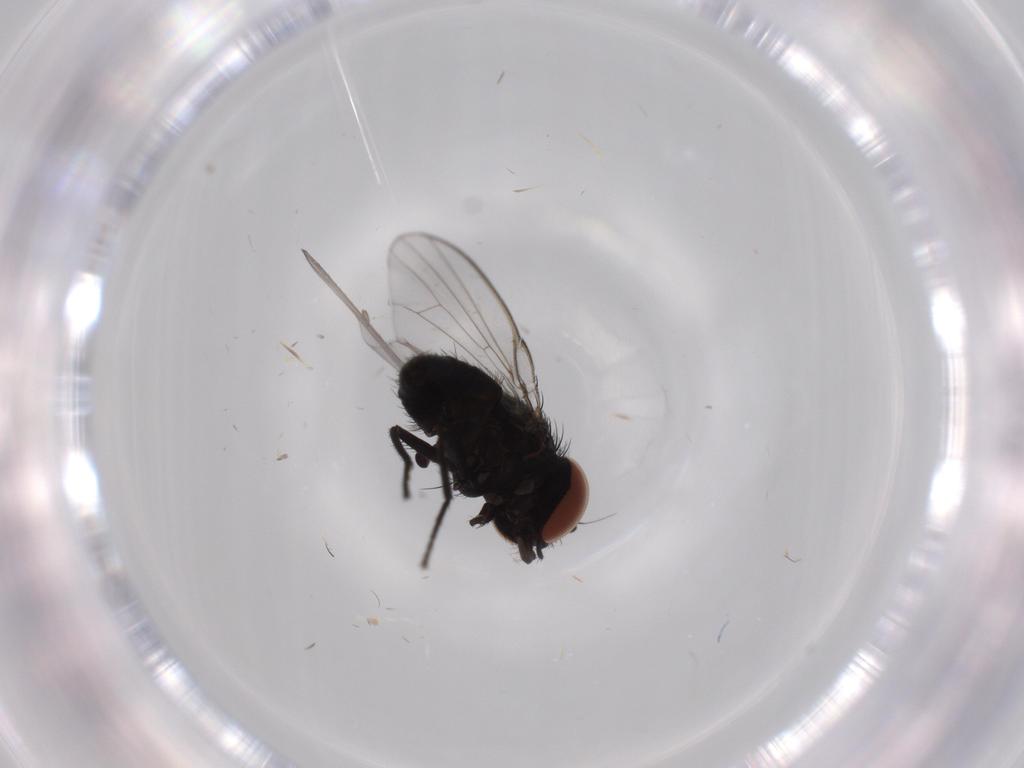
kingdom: Animalia
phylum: Arthropoda
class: Insecta
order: Diptera
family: Milichiidae
